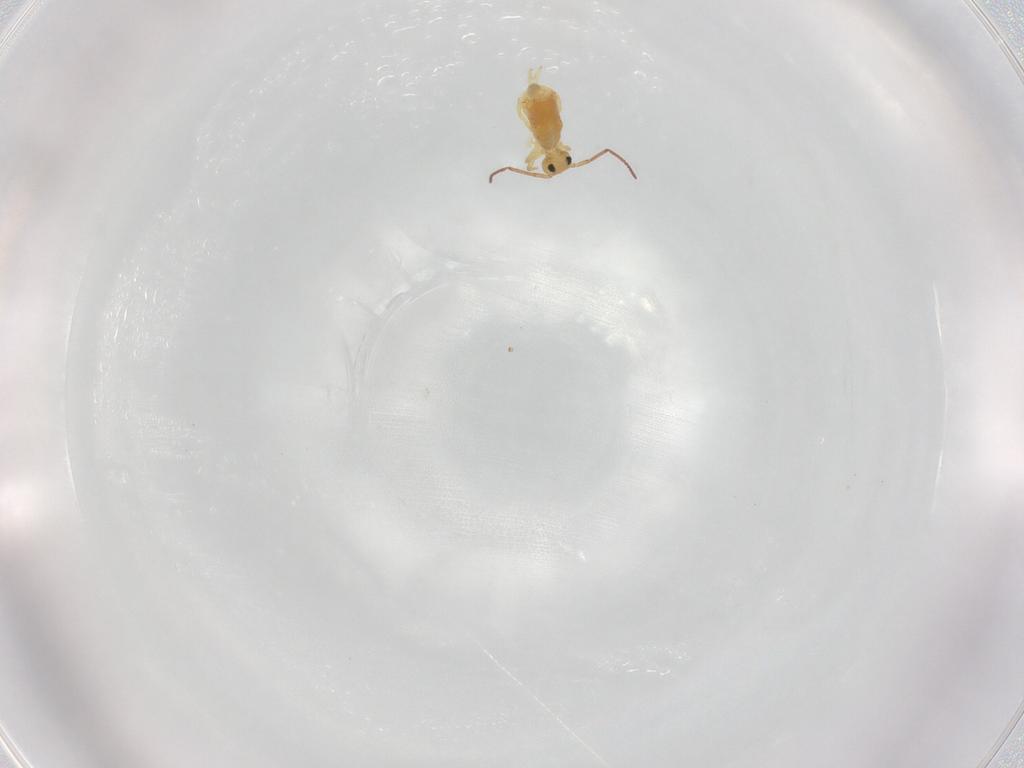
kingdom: Animalia
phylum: Arthropoda
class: Collembola
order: Symphypleona
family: Bourletiellidae
